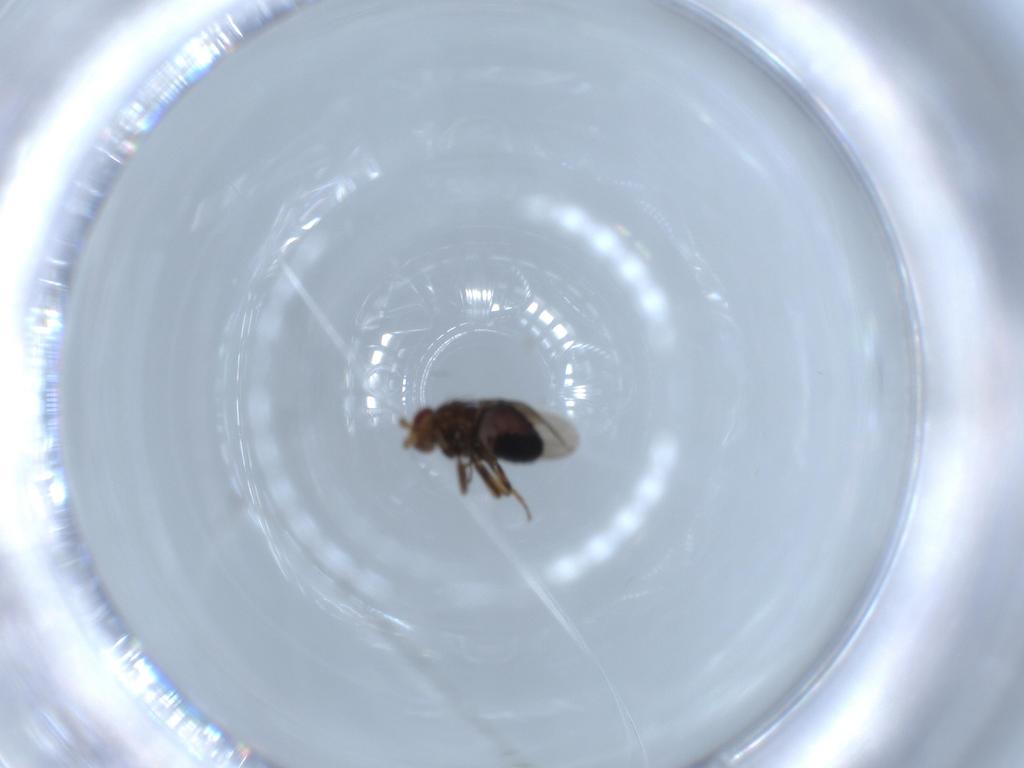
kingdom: Animalia
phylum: Arthropoda
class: Insecta
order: Diptera
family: Sphaeroceridae
